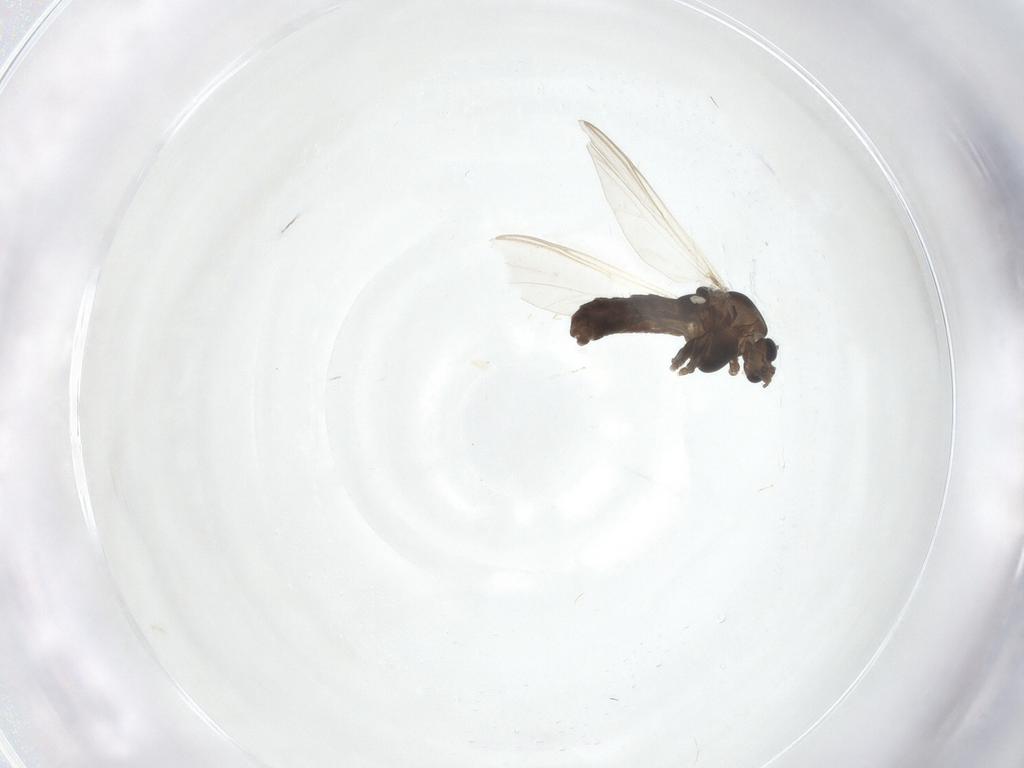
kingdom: Animalia
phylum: Arthropoda
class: Insecta
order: Diptera
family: Chironomidae
